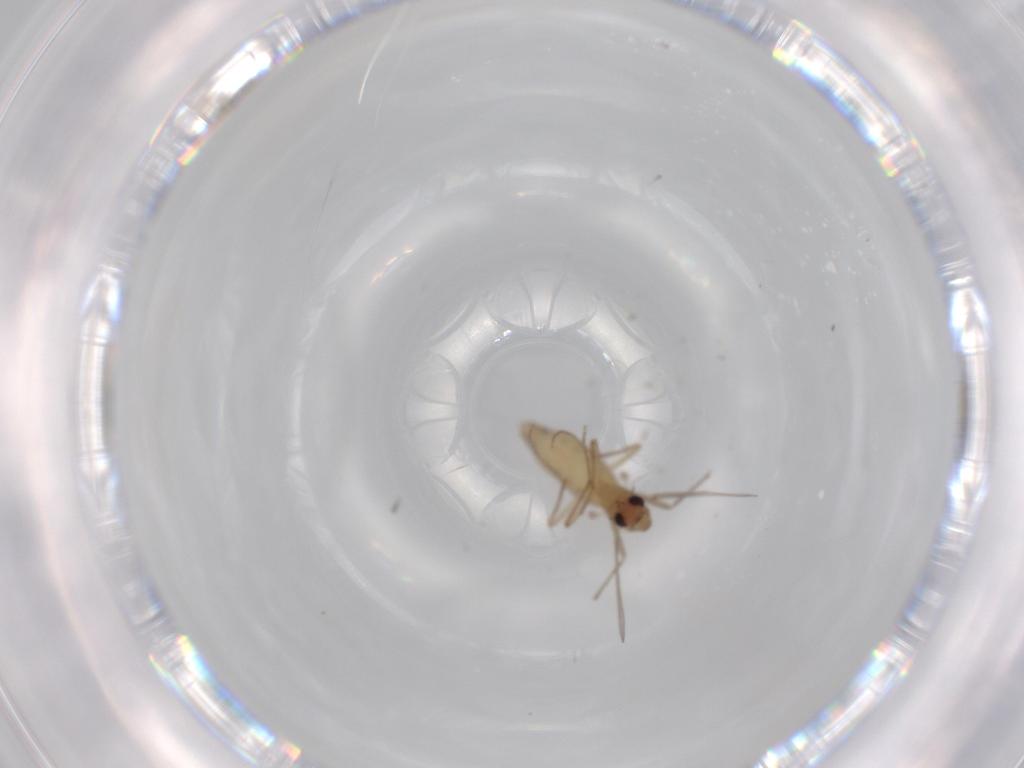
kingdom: Animalia
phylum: Arthropoda
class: Insecta
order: Diptera
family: Chironomidae
